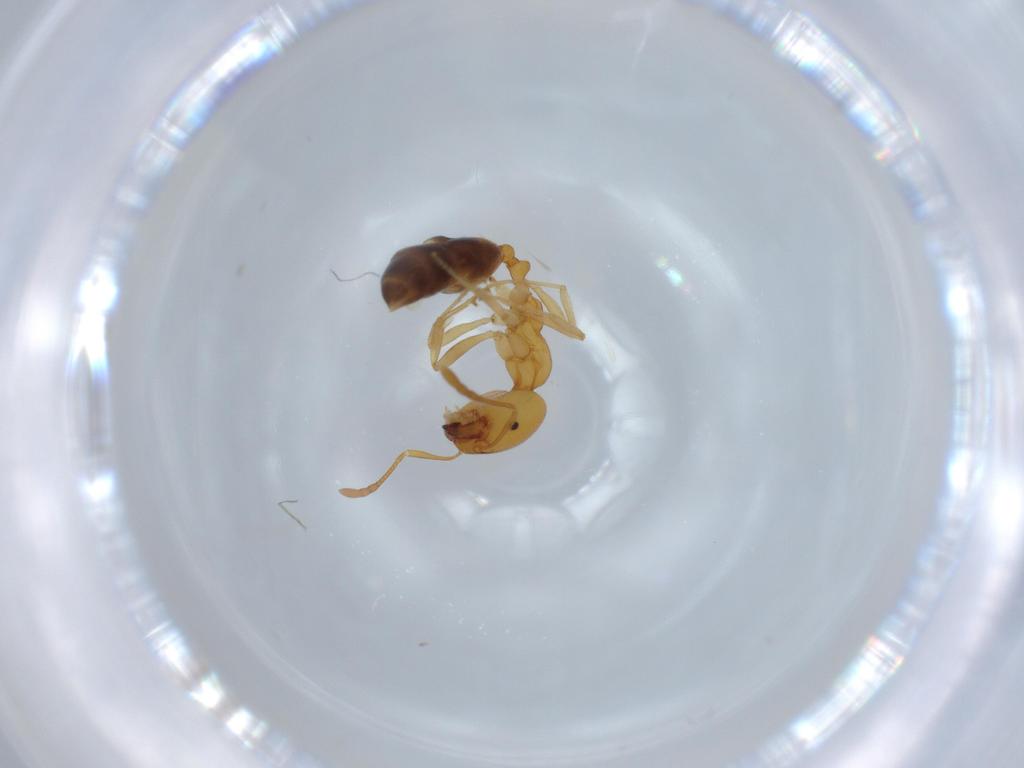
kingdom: Animalia
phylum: Arthropoda
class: Insecta
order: Hymenoptera
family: Formicidae
